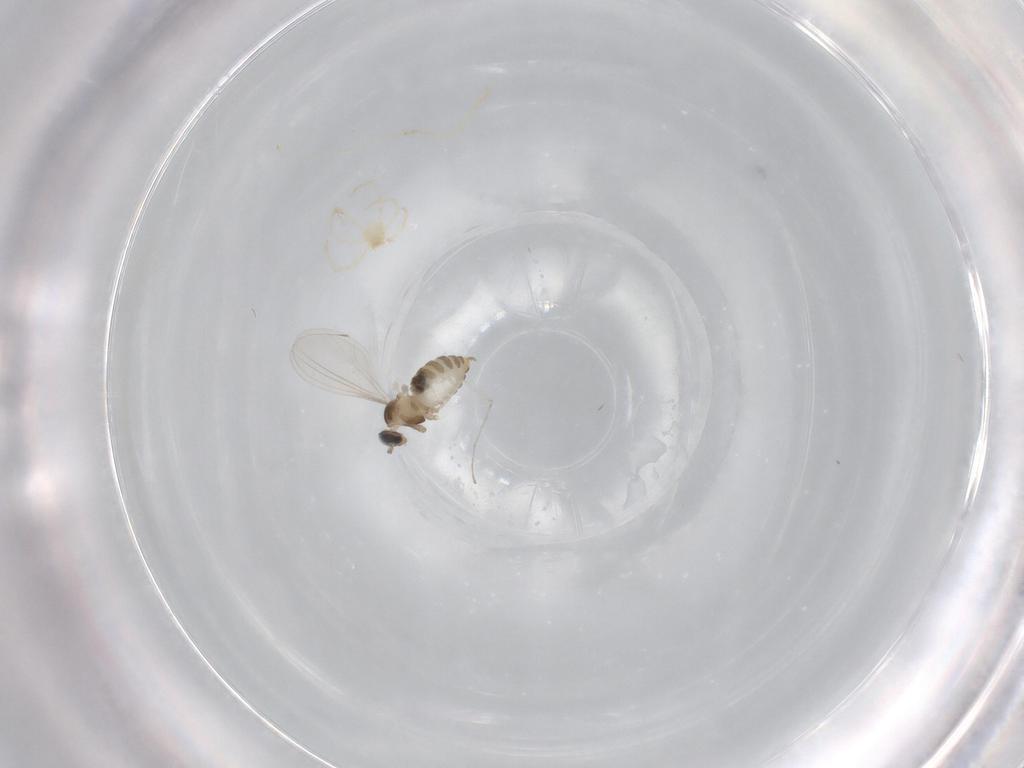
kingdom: Animalia
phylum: Arthropoda
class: Insecta
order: Diptera
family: Cecidomyiidae
